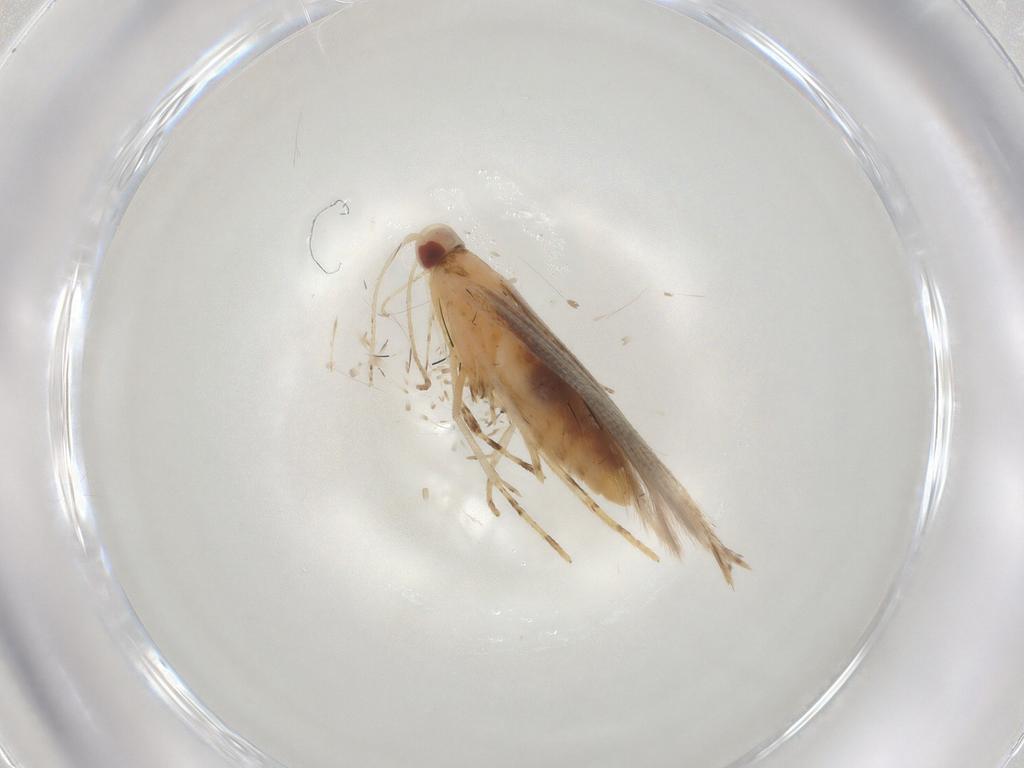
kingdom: Animalia
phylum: Arthropoda
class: Insecta
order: Lepidoptera
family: Cosmopterigidae
